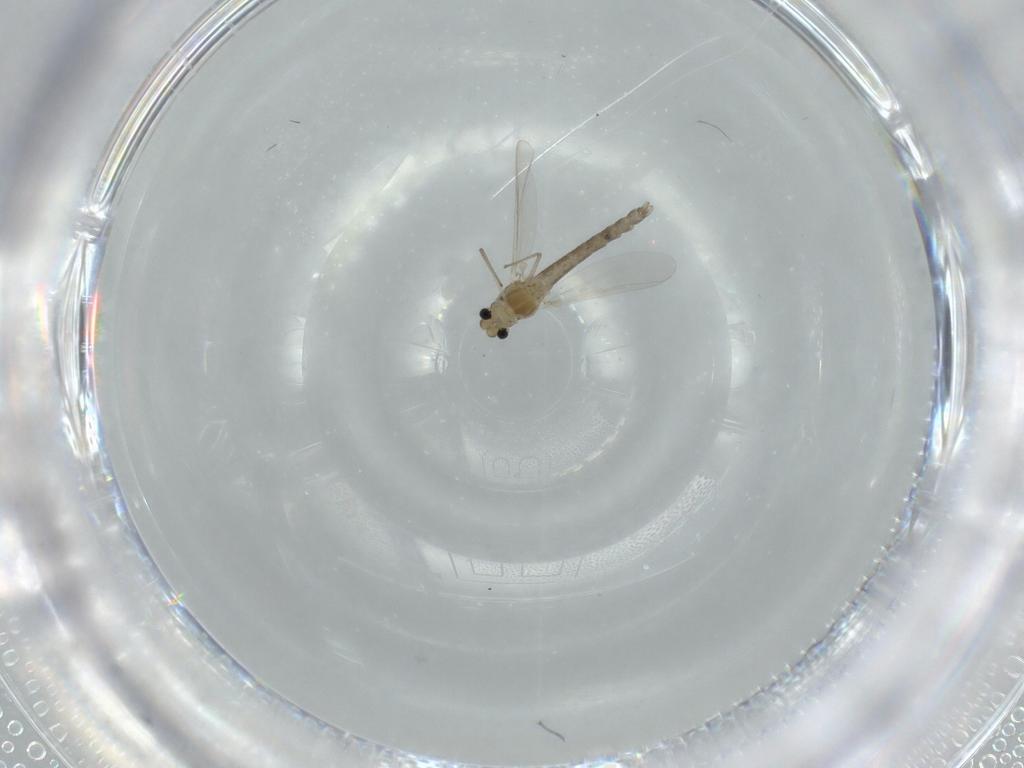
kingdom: Animalia
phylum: Arthropoda
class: Insecta
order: Diptera
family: Chironomidae
